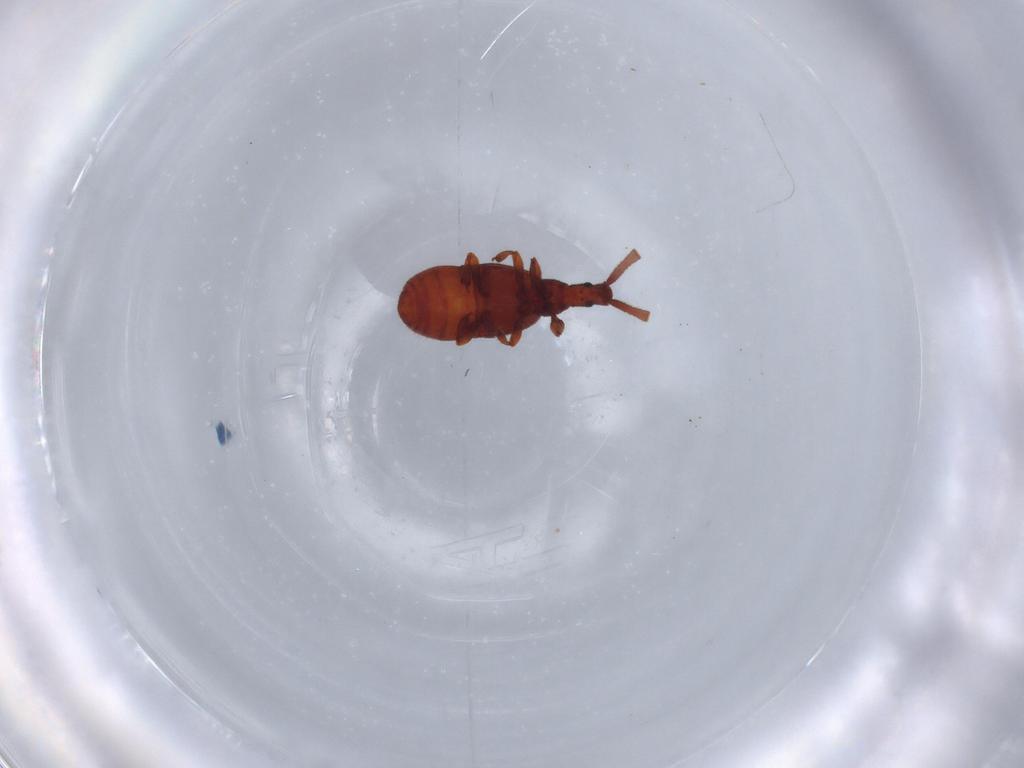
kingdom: Animalia
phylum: Arthropoda
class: Insecta
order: Coleoptera
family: Staphylinidae
